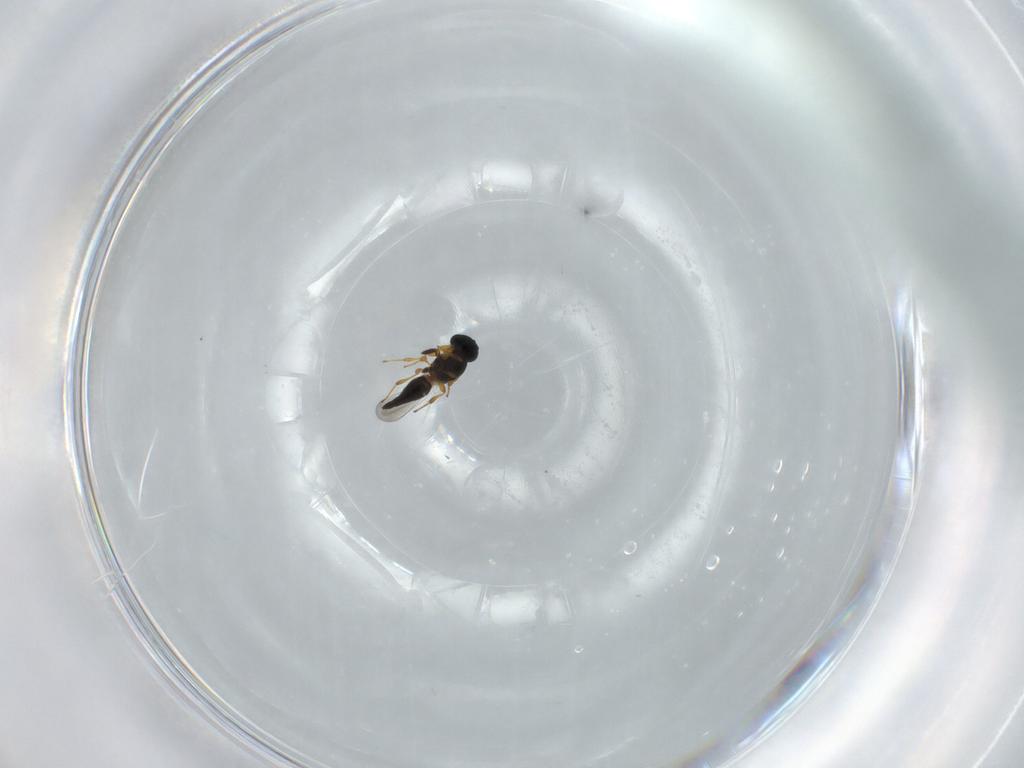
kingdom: Animalia
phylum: Arthropoda
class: Insecta
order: Hymenoptera
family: Platygastridae
